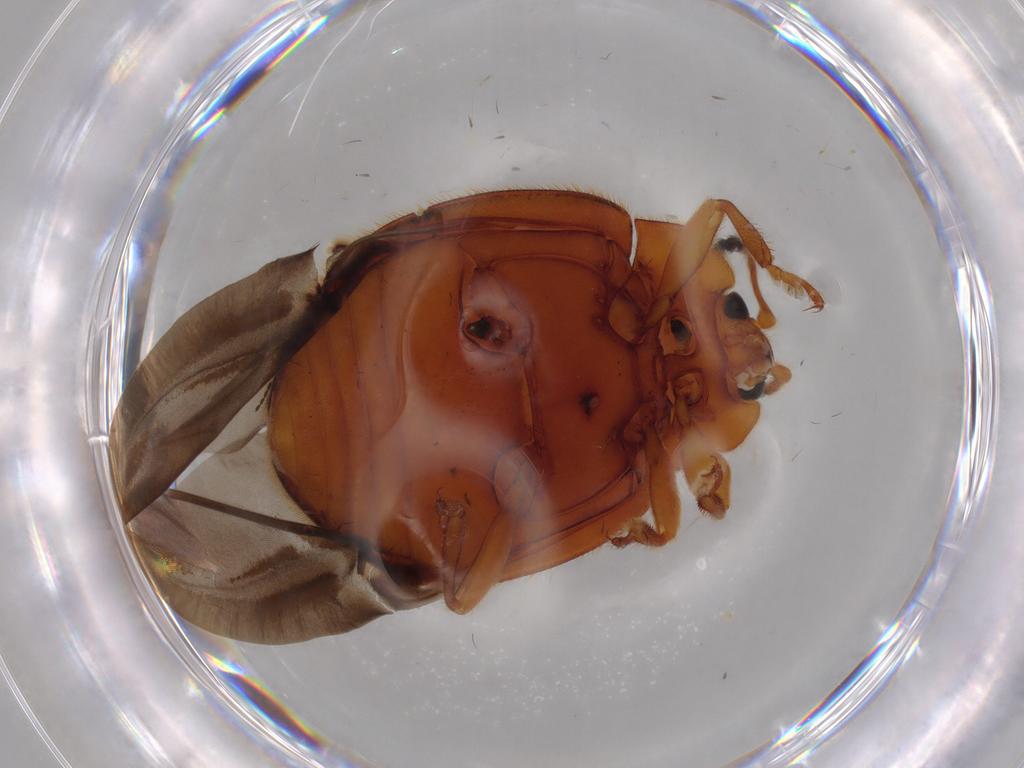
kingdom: Animalia
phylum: Arthropoda
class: Insecta
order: Coleoptera
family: Endomychidae
